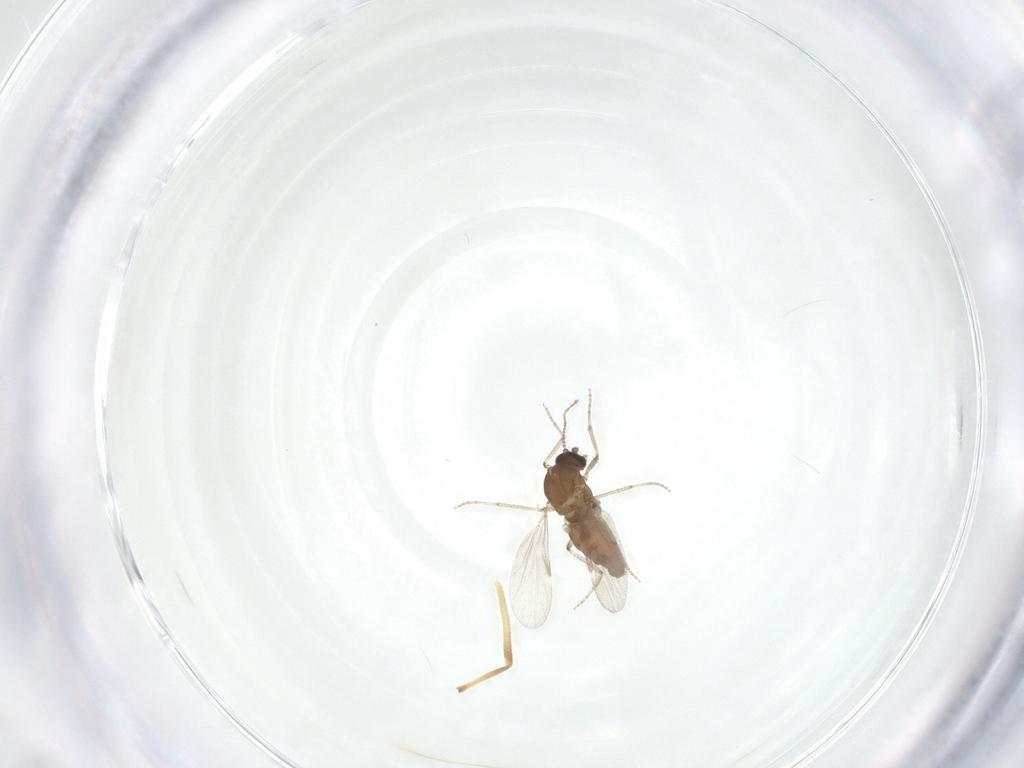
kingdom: Animalia
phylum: Arthropoda
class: Insecta
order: Diptera
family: Ceratopogonidae
